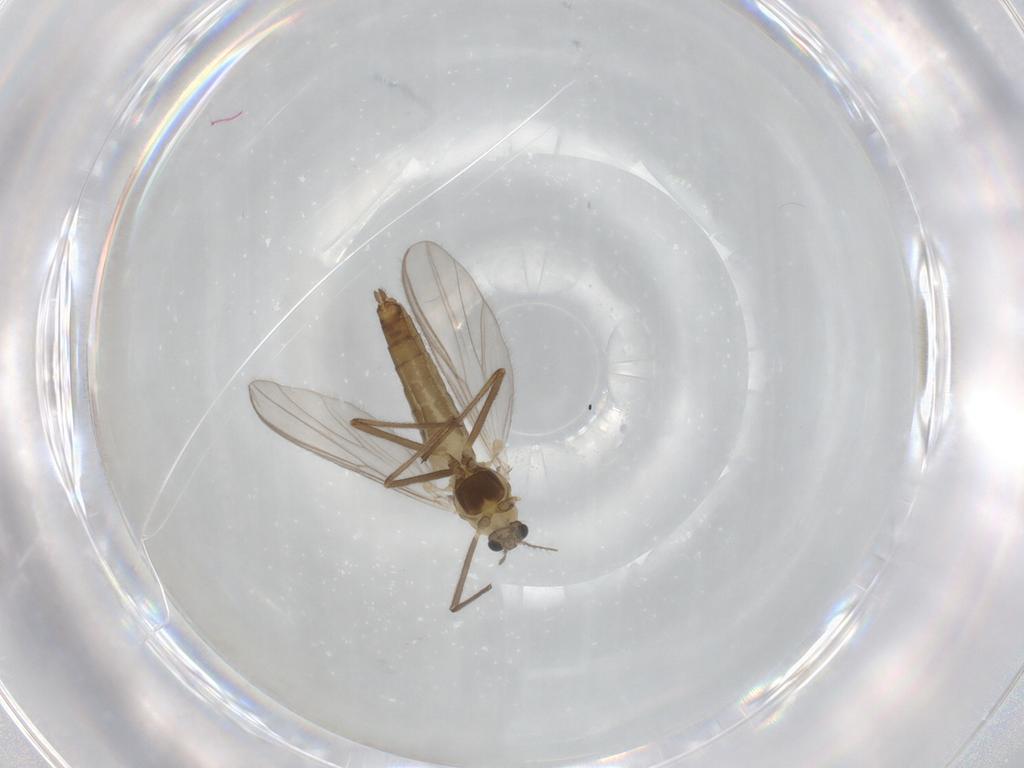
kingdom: Animalia
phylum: Arthropoda
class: Insecta
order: Diptera
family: Chironomidae
